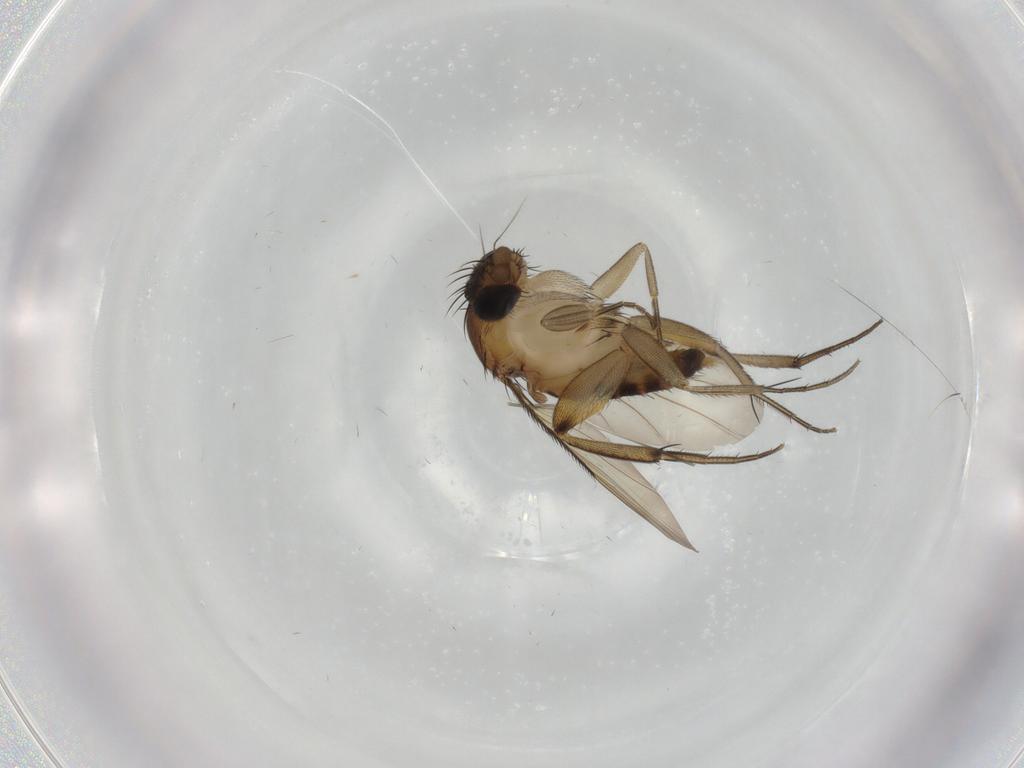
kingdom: Animalia
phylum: Arthropoda
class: Insecta
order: Diptera
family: Phoridae
